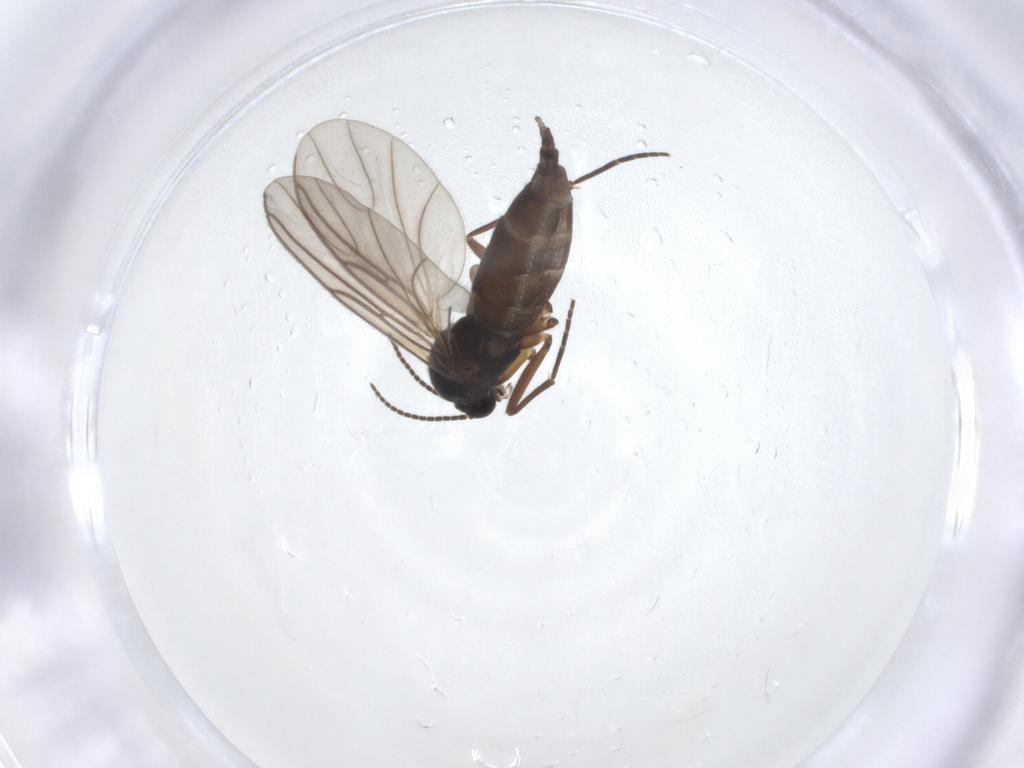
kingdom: Animalia
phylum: Arthropoda
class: Insecta
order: Diptera
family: Sciaridae
